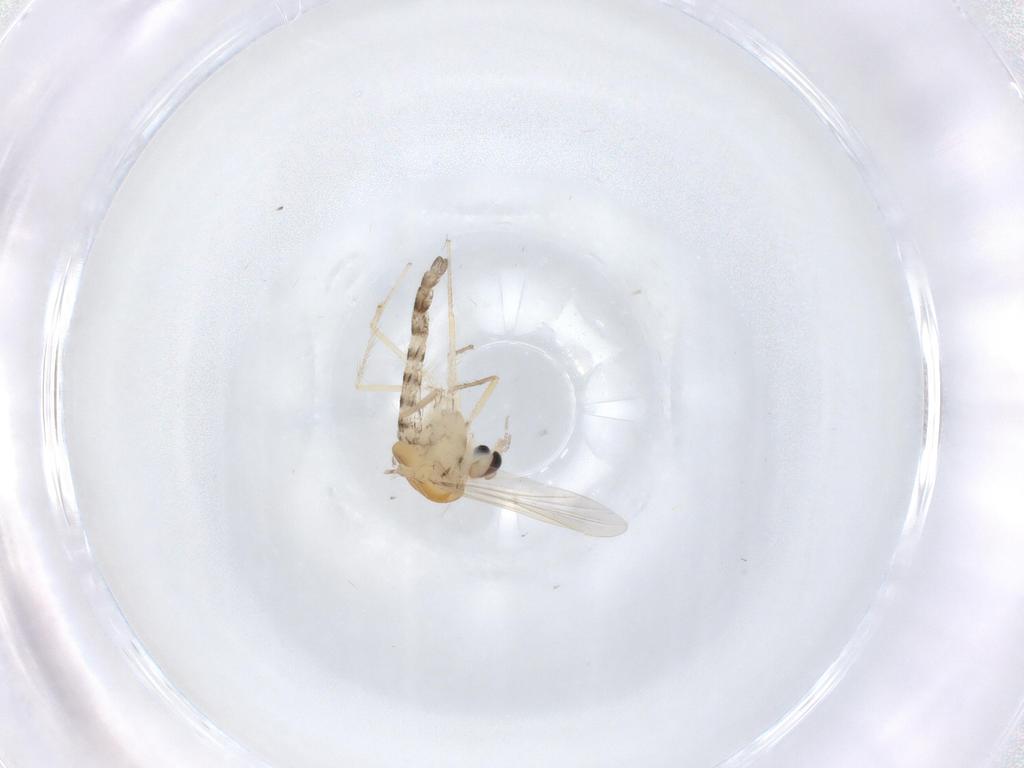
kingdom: Animalia
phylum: Arthropoda
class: Insecta
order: Diptera
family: Chironomidae
